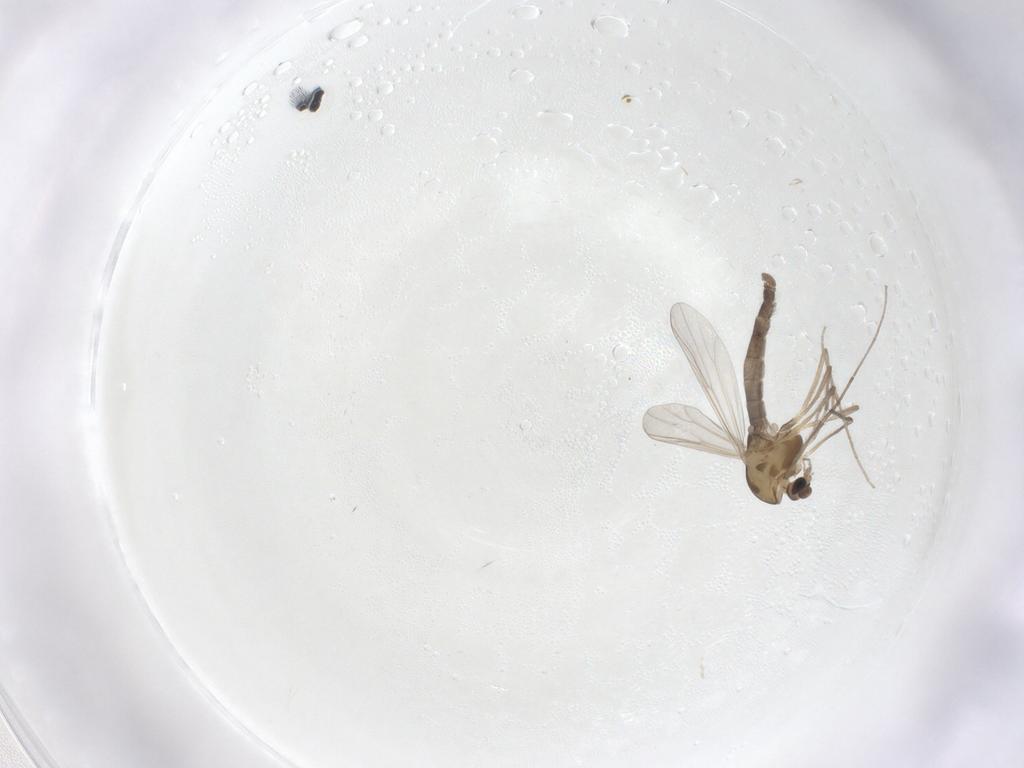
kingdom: Animalia
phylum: Arthropoda
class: Insecta
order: Diptera
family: Chironomidae
